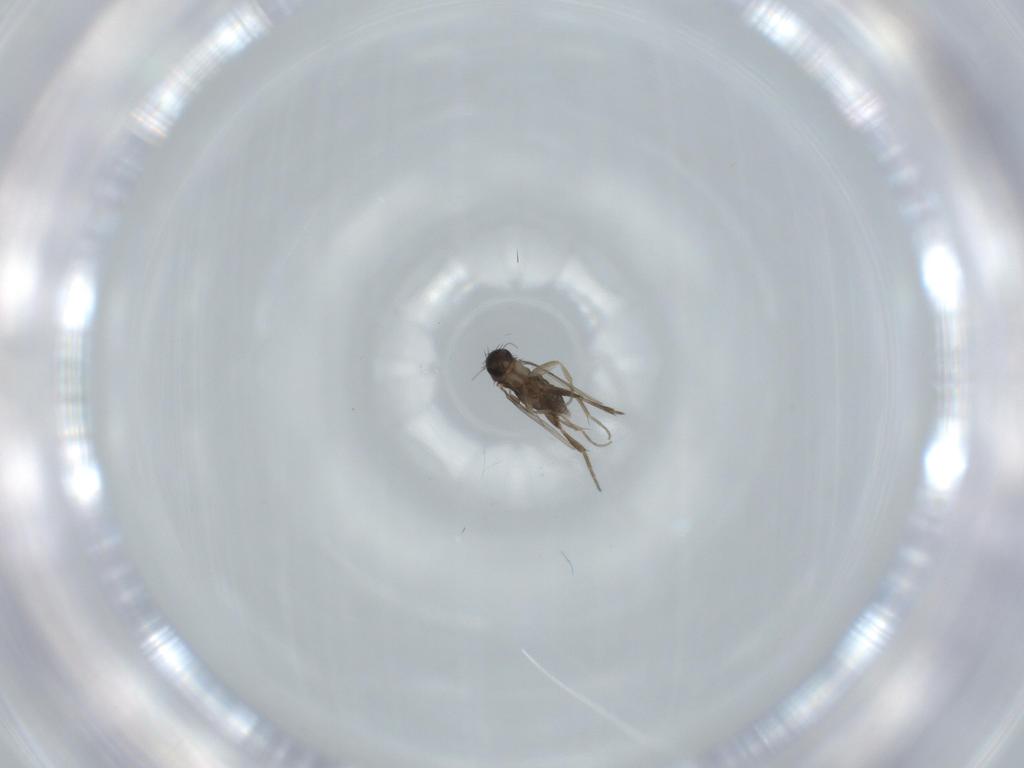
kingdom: Animalia
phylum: Arthropoda
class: Insecta
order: Diptera
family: Phoridae
